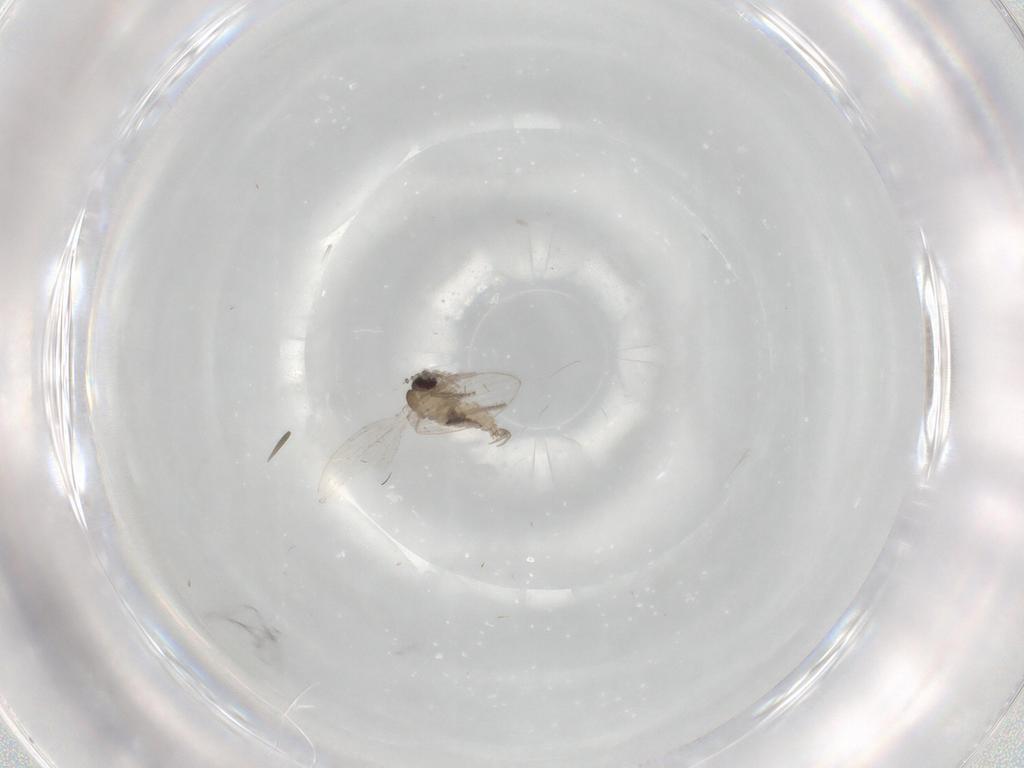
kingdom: Animalia
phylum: Arthropoda
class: Insecta
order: Diptera
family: Psychodidae
